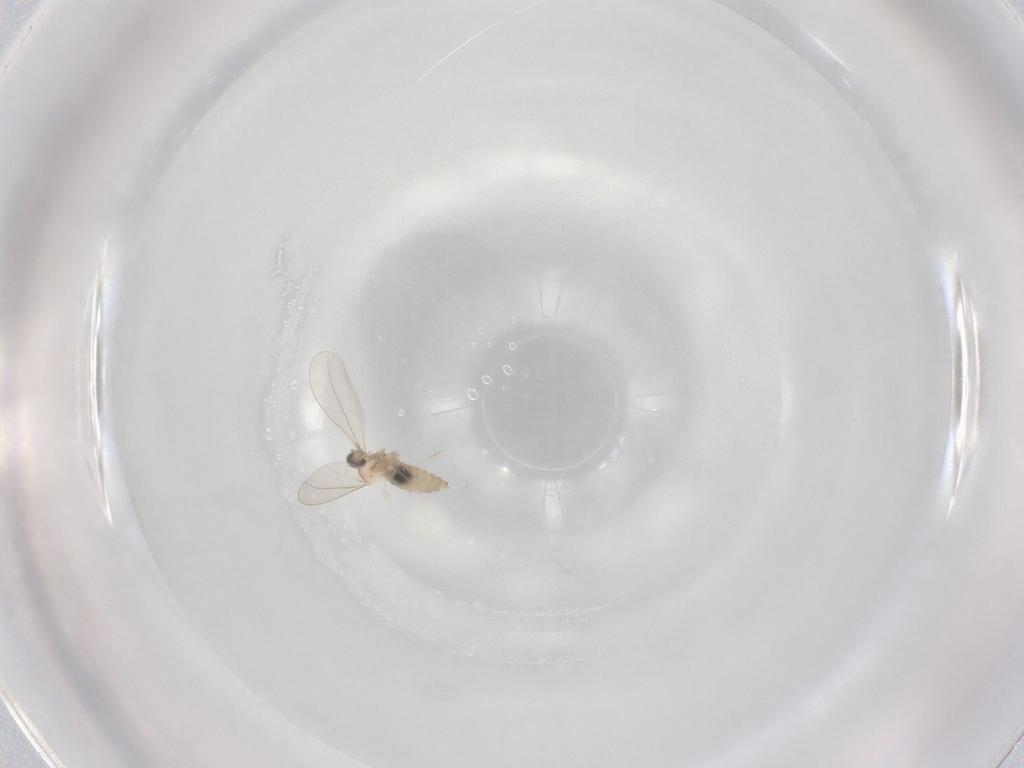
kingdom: Animalia
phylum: Arthropoda
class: Insecta
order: Diptera
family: Cecidomyiidae
